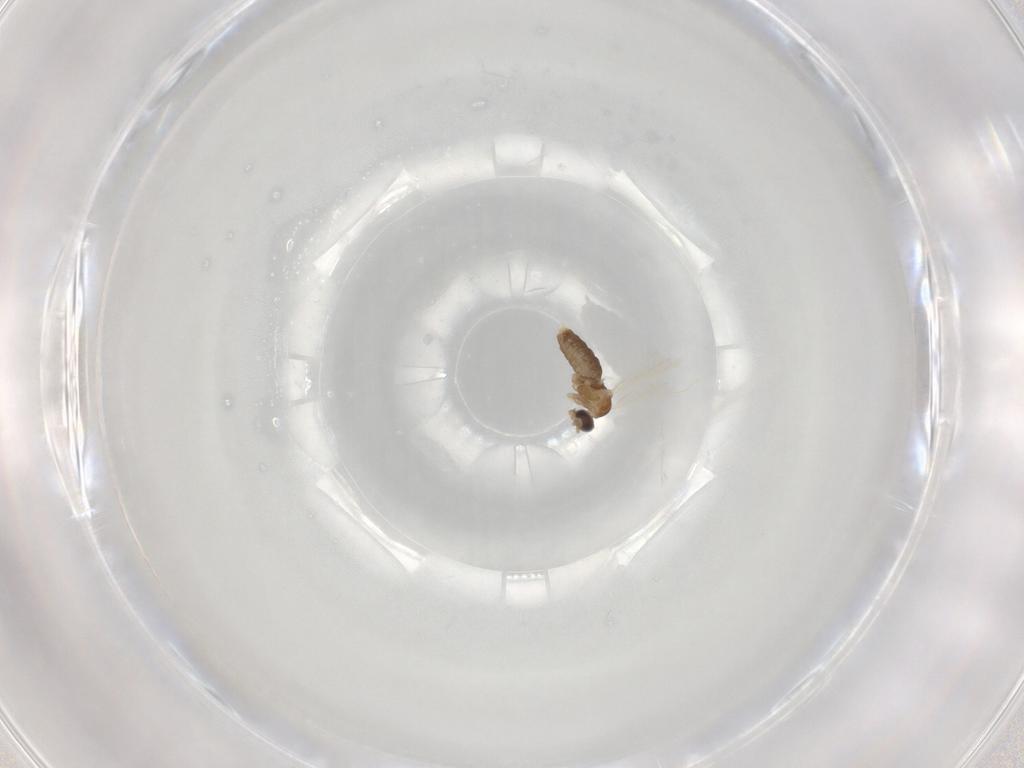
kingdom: Animalia
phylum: Arthropoda
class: Insecta
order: Diptera
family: Cecidomyiidae
